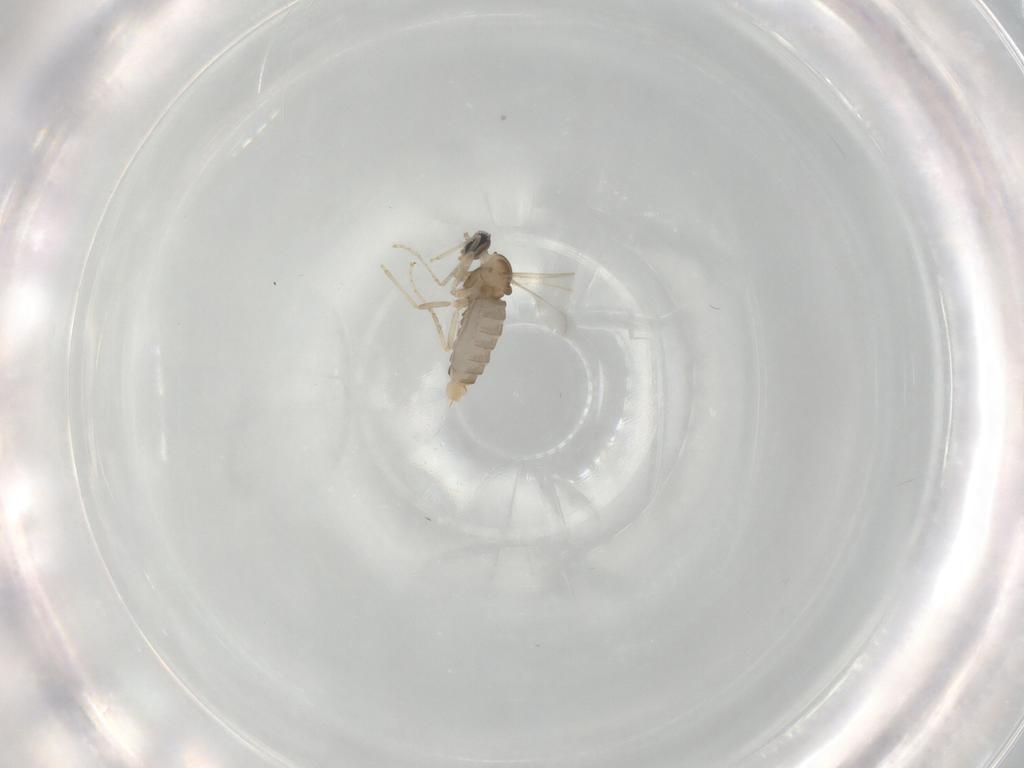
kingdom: Animalia
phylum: Arthropoda
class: Insecta
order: Diptera
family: Cecidomyiidae
